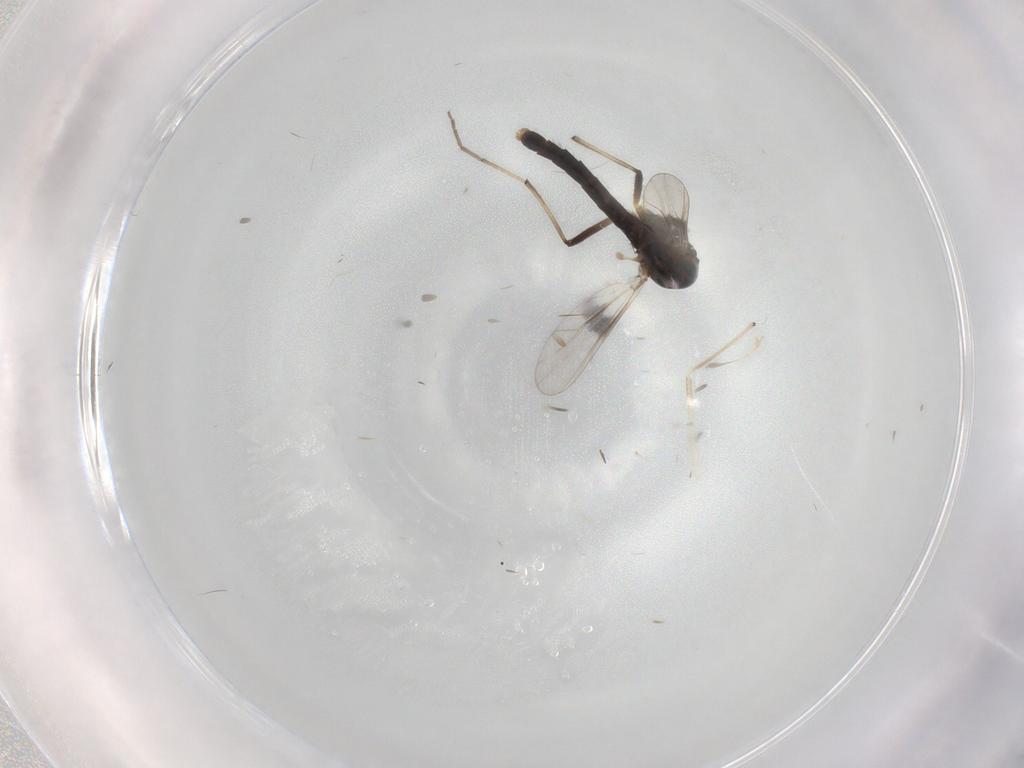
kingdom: Animalia
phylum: Arthropoda
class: Insecta
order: Diptera
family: Chironomidae
